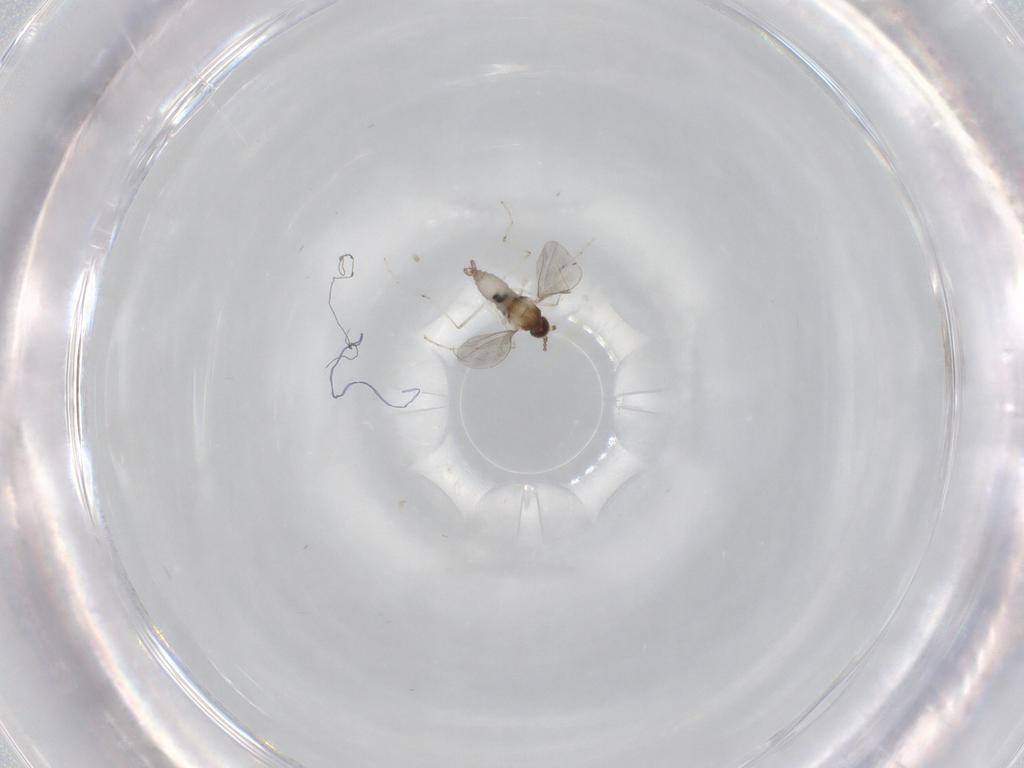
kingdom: Animalia
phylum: Arthropoda
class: Insecta
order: Diptera
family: Cecidomyiidae
